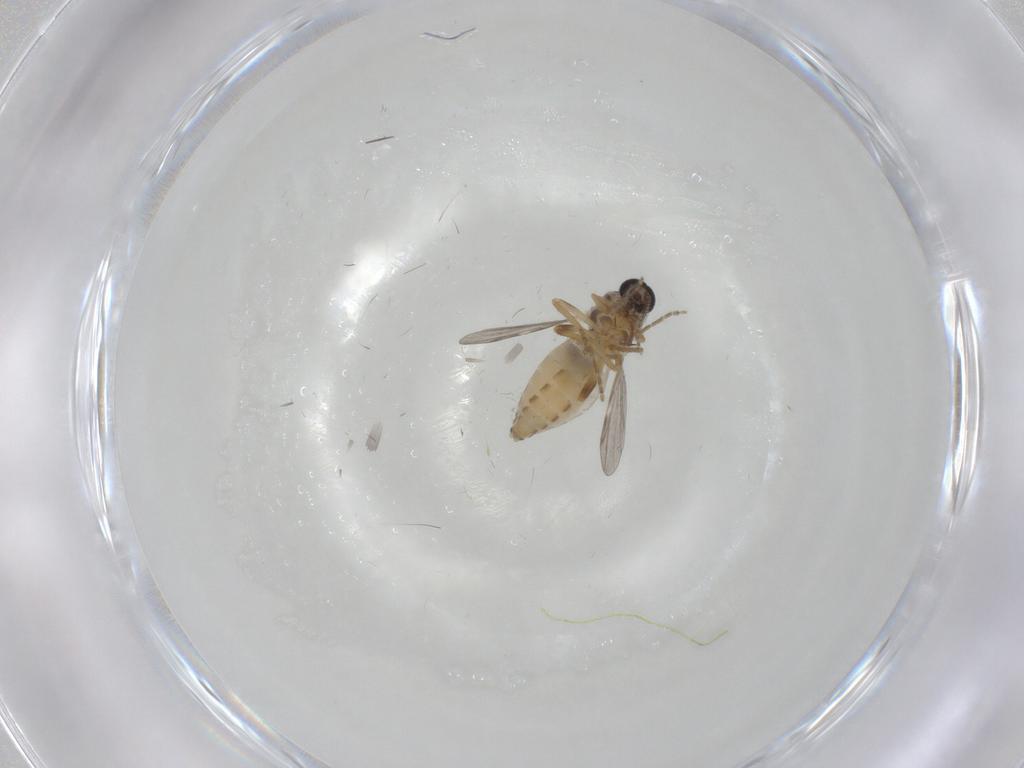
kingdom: Animalia
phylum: Arthropoda
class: Insecta
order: Diptera
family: Ceratopogonidae
